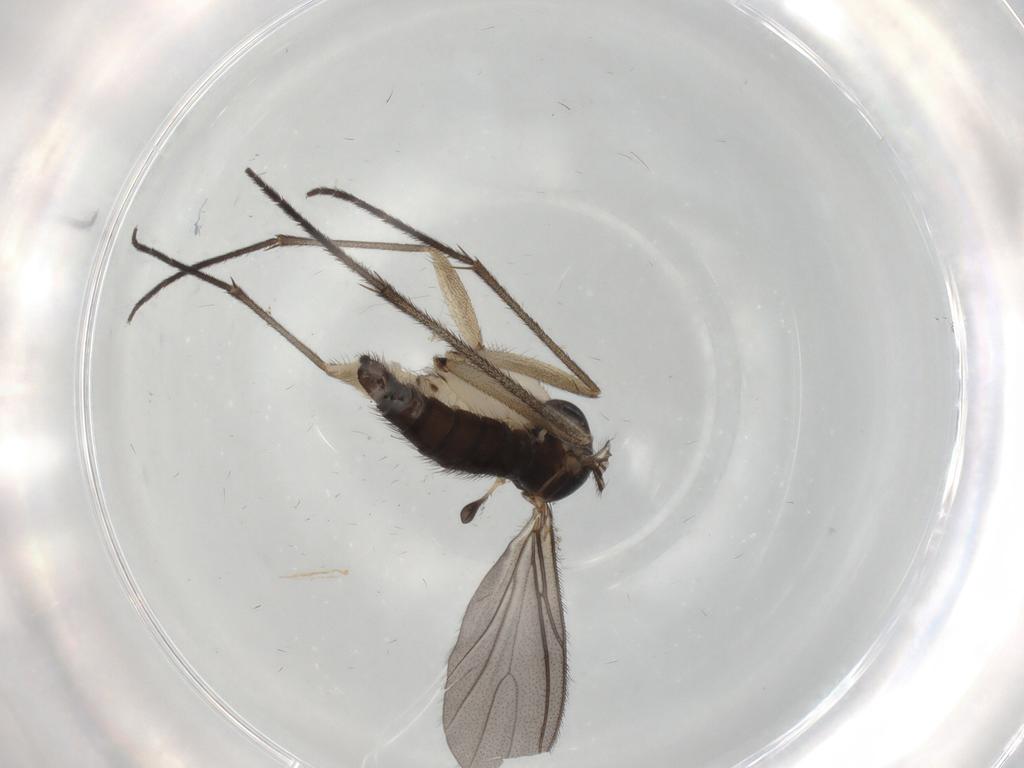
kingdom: Animalia
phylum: Arthropoda
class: Insecta
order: Diptera
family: Sciaridae
